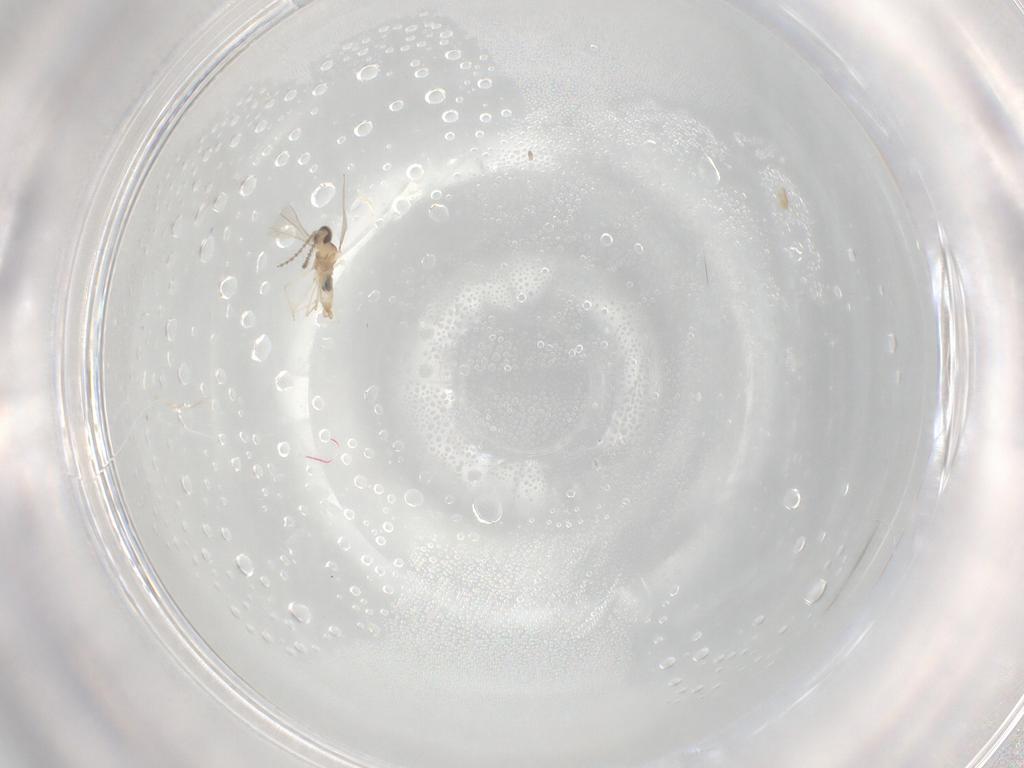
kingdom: Animalia
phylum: Arthropoda
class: Insecta
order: Diptera
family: Cecidomyiidae
